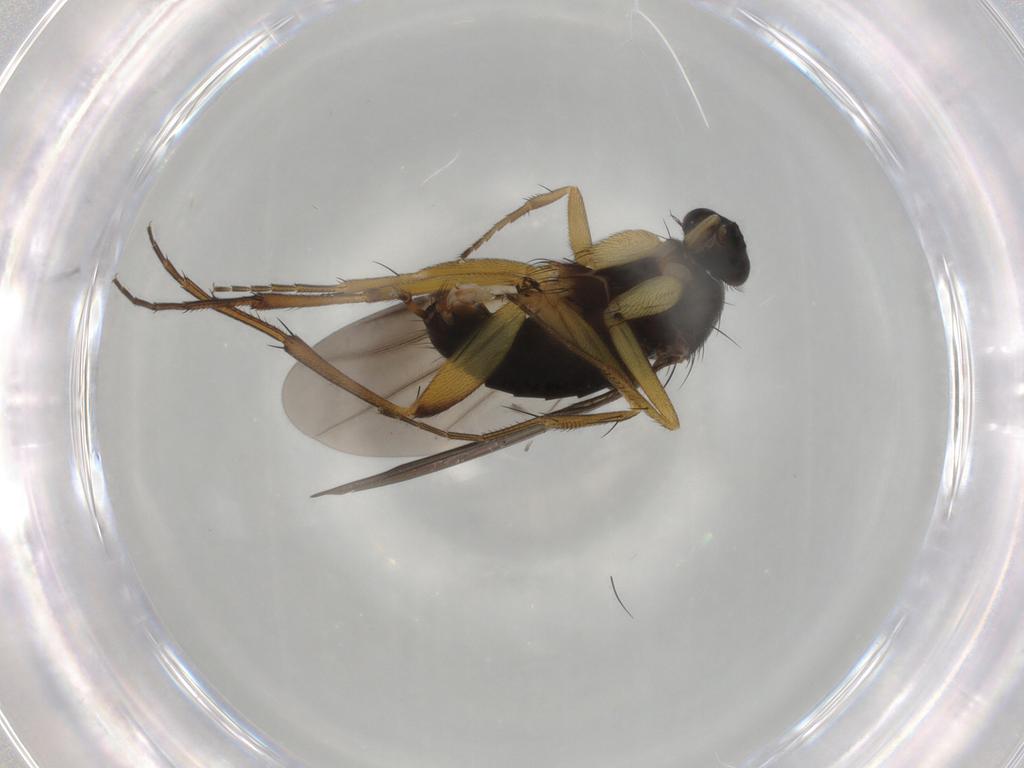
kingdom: Animalia
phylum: Arthropoda
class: Insecta
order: Diptera
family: Phoridae
